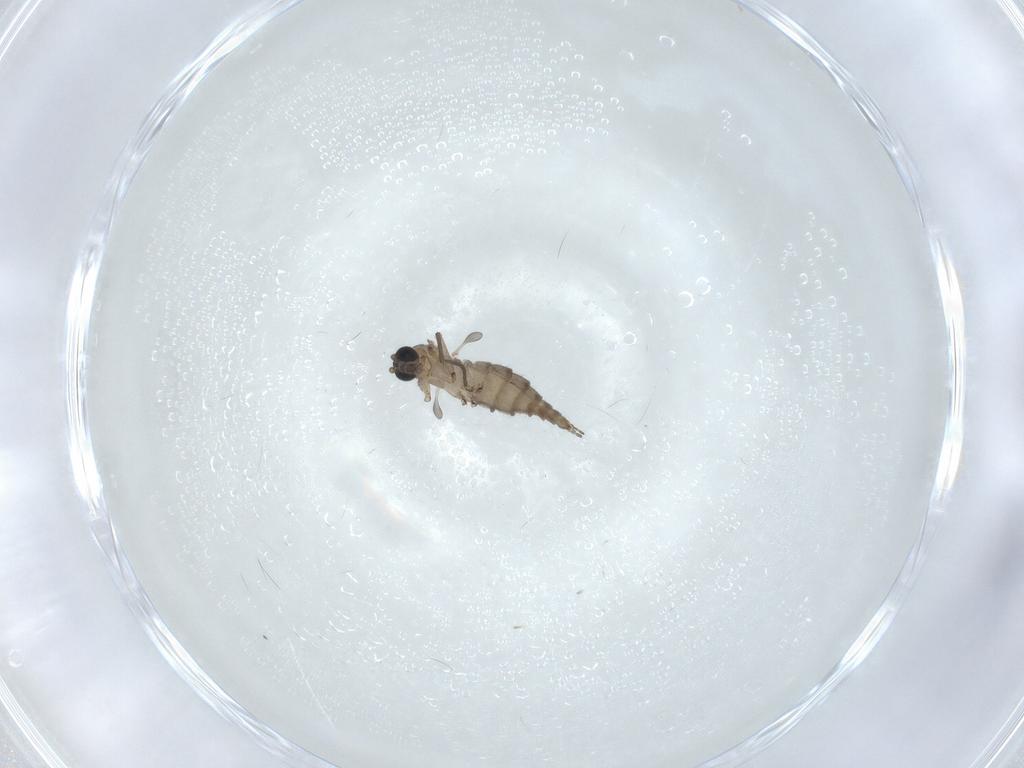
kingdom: Animalia
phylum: Arthropoda
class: Insecta
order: Diptera
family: Sciaridae
